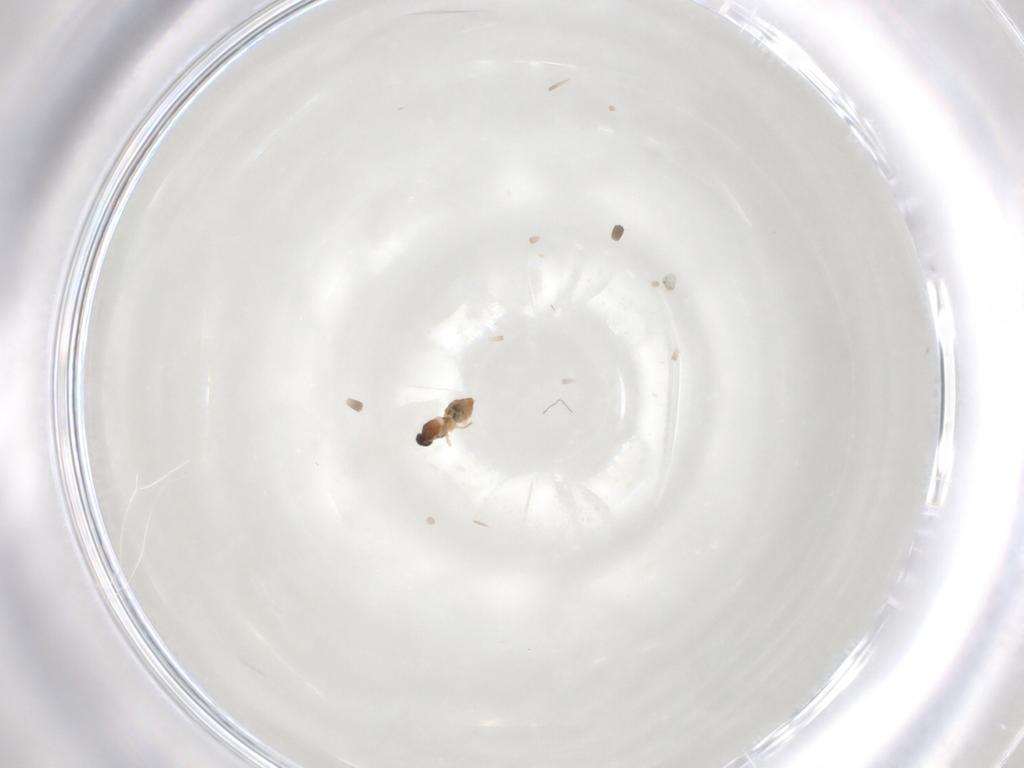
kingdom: Animalia
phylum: Arthropoda
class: Insecta
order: Diptera
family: Cecidomyiidae
